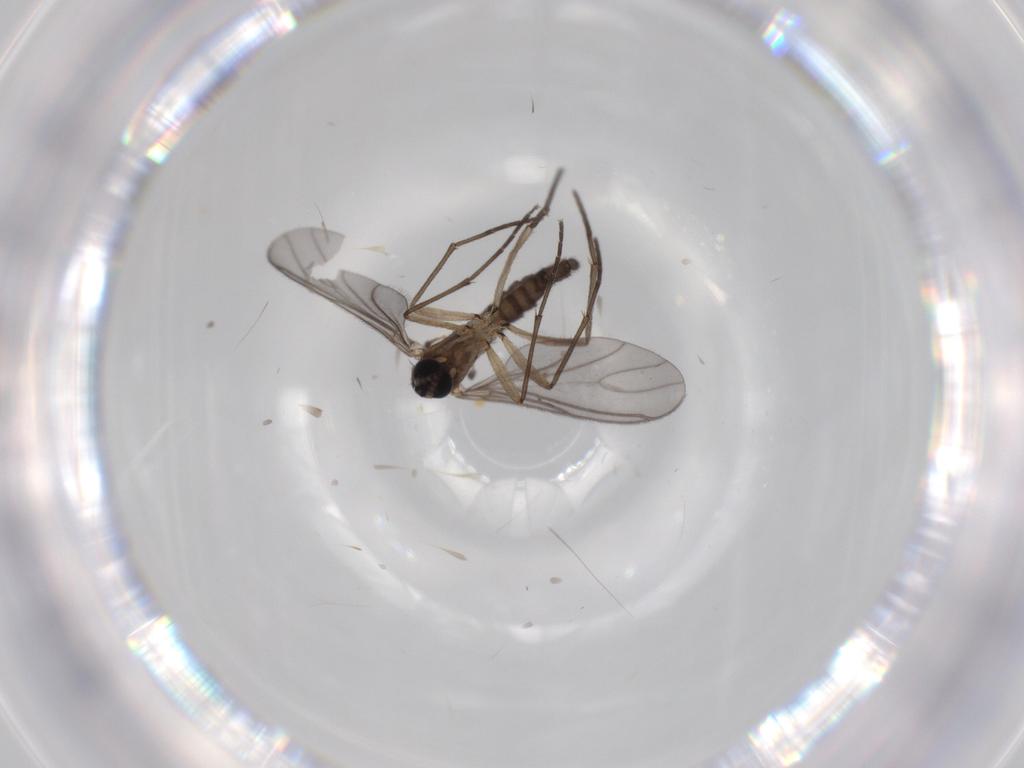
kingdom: Animalia
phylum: Arthropoda
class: Insecta
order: Diptera
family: Sciaridae
